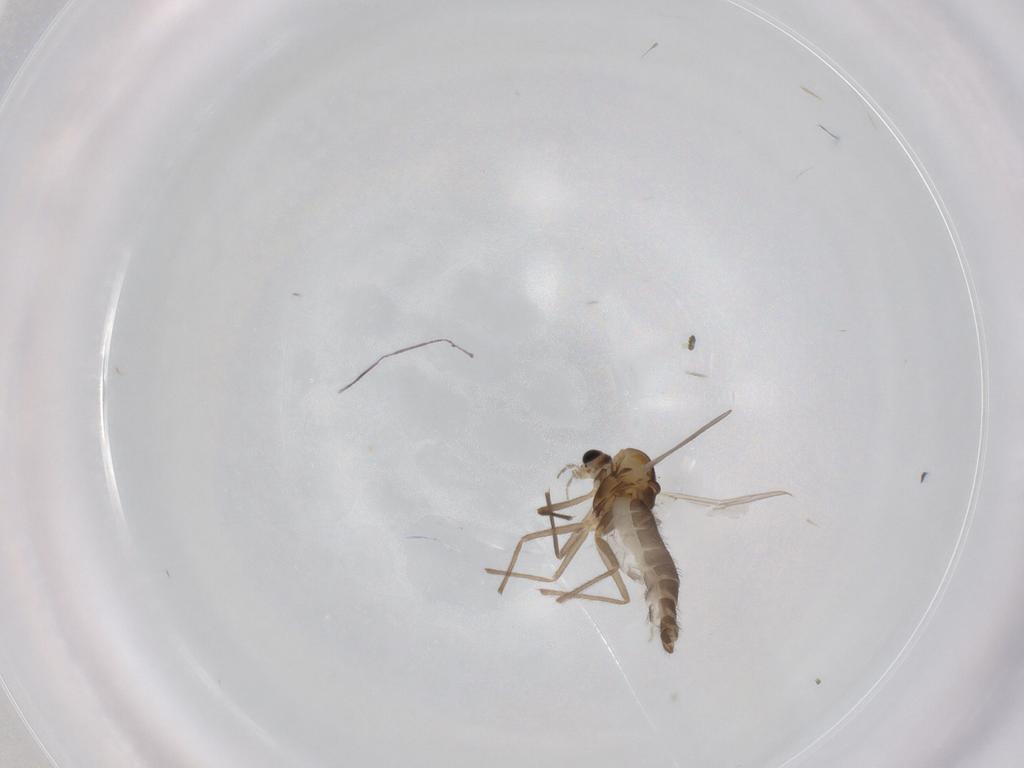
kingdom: Animalia
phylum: Arthropoda
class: Insecta
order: Diptera
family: Chironomidae
